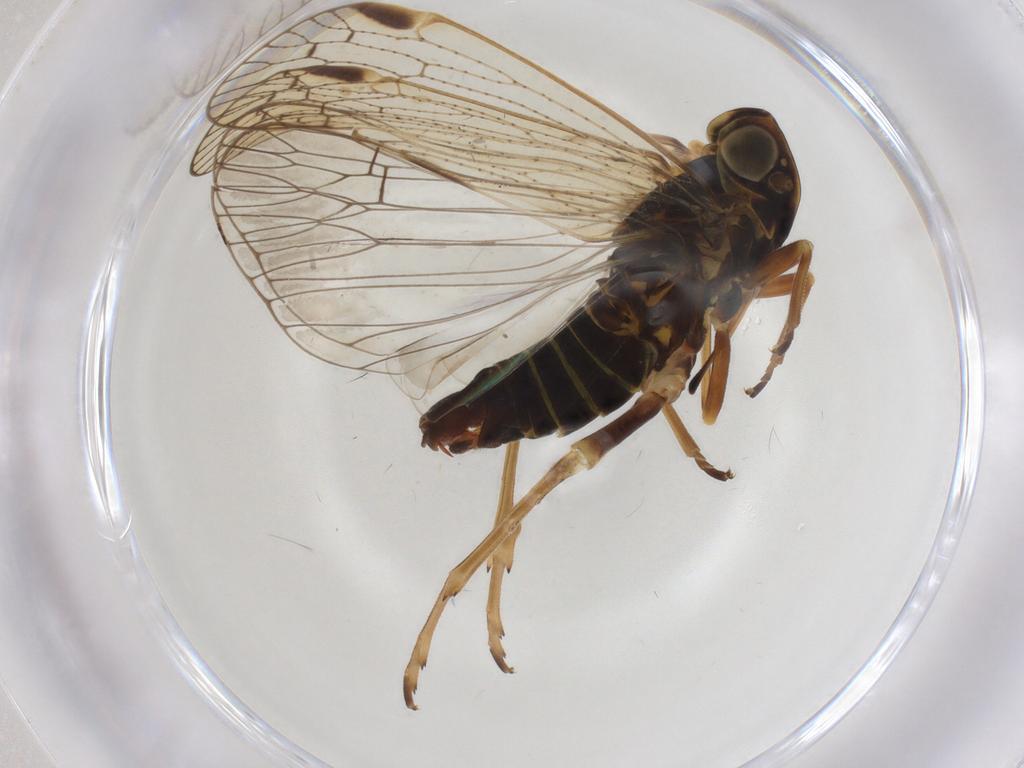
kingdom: Animalia
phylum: Arthropoda
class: Insecta
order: Hemiptera
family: Cixiidae
